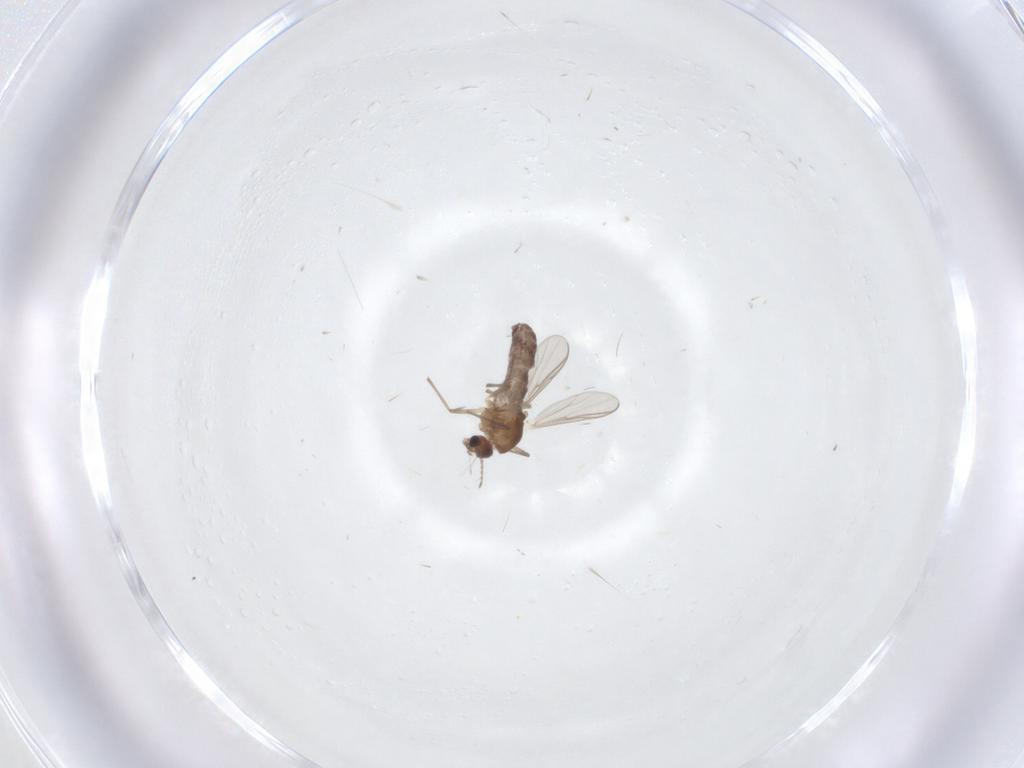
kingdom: Animalia
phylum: Arthropoda
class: Insecta
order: Diptera
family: Chironomidae
